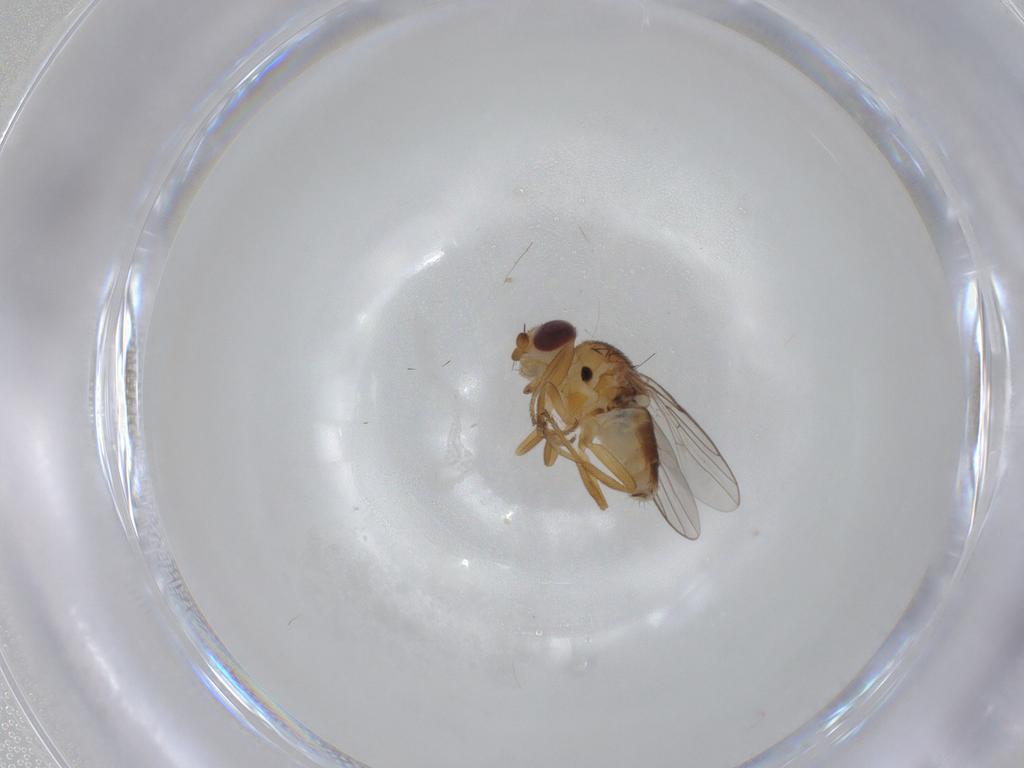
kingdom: Animalia
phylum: Arthropoda
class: Insecta
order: Diptera
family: Chloropidae
